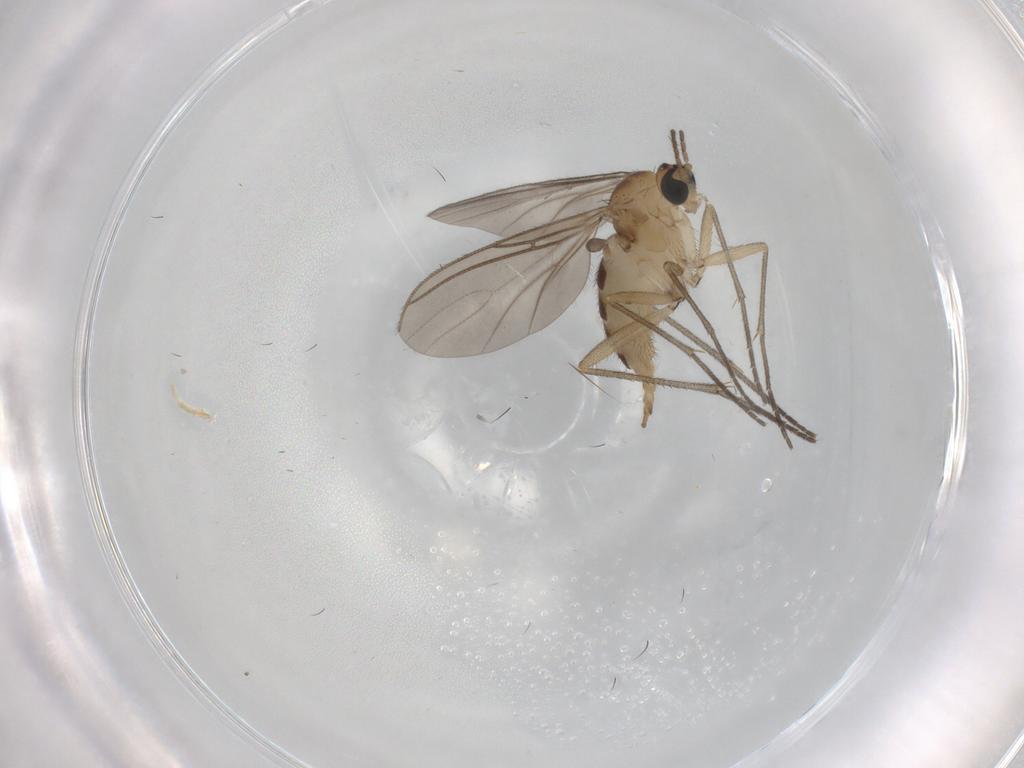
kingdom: Animalia
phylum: Arthropoda
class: Insecta
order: Diptera
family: Sciaridae
